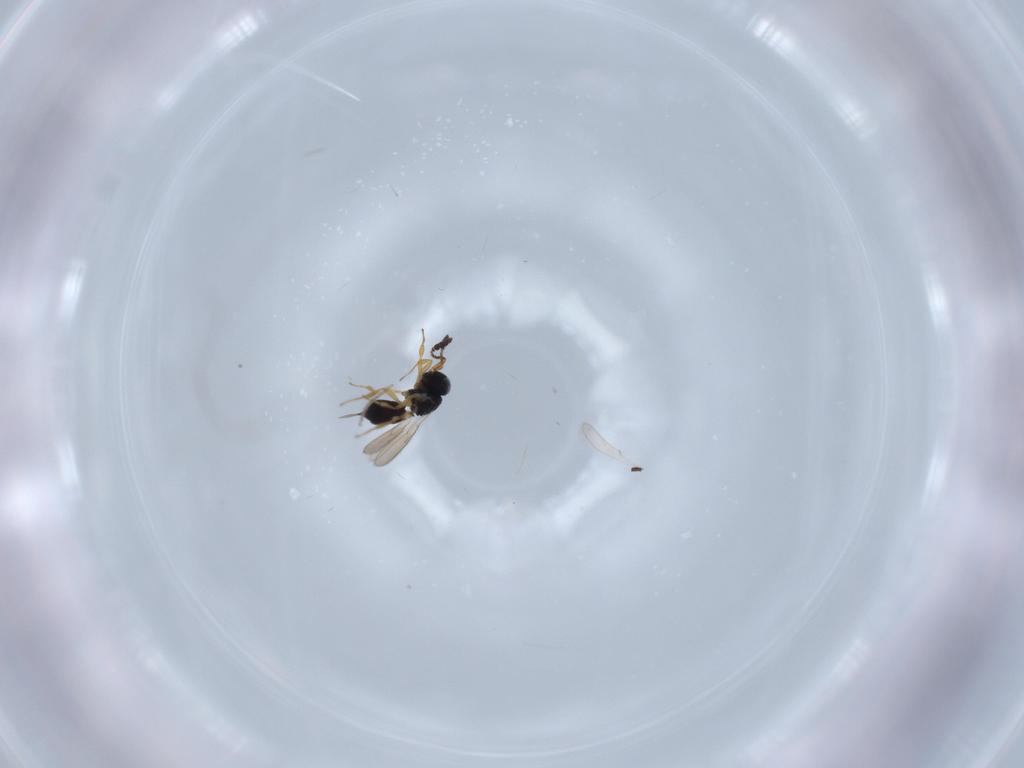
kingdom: Animalia
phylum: Arthropoda
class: Insecta
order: Hymenoptera
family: Scelionidae
